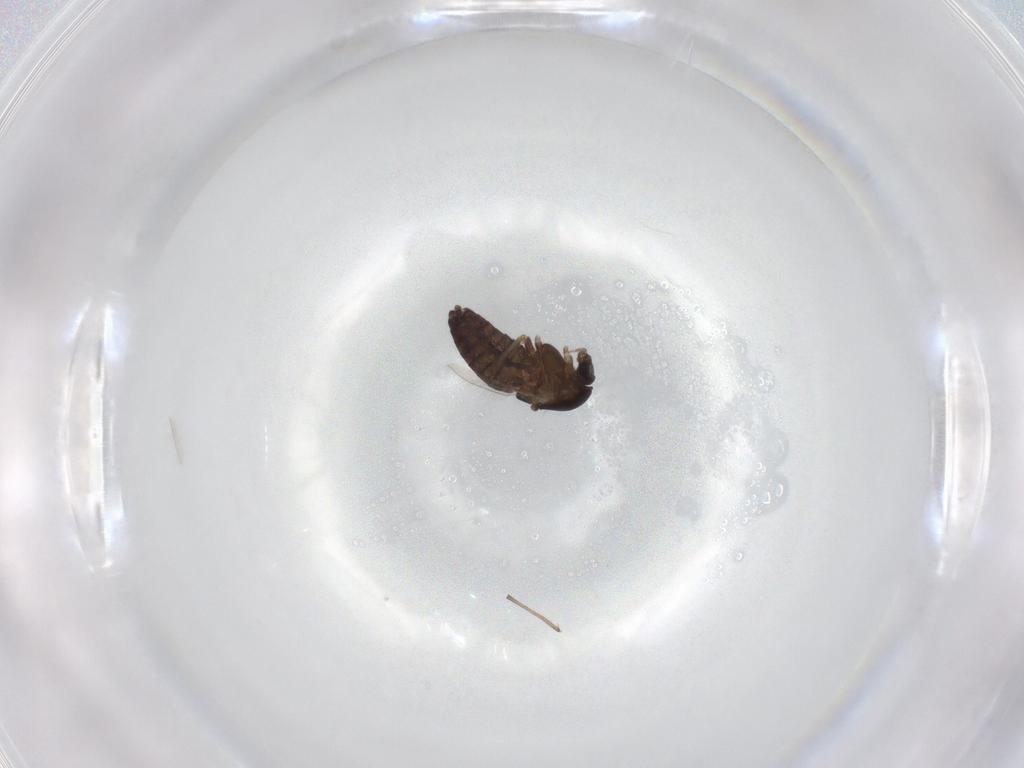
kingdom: Animalia
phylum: Arthropoda
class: Insecta
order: Diptera
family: Chironomidae
